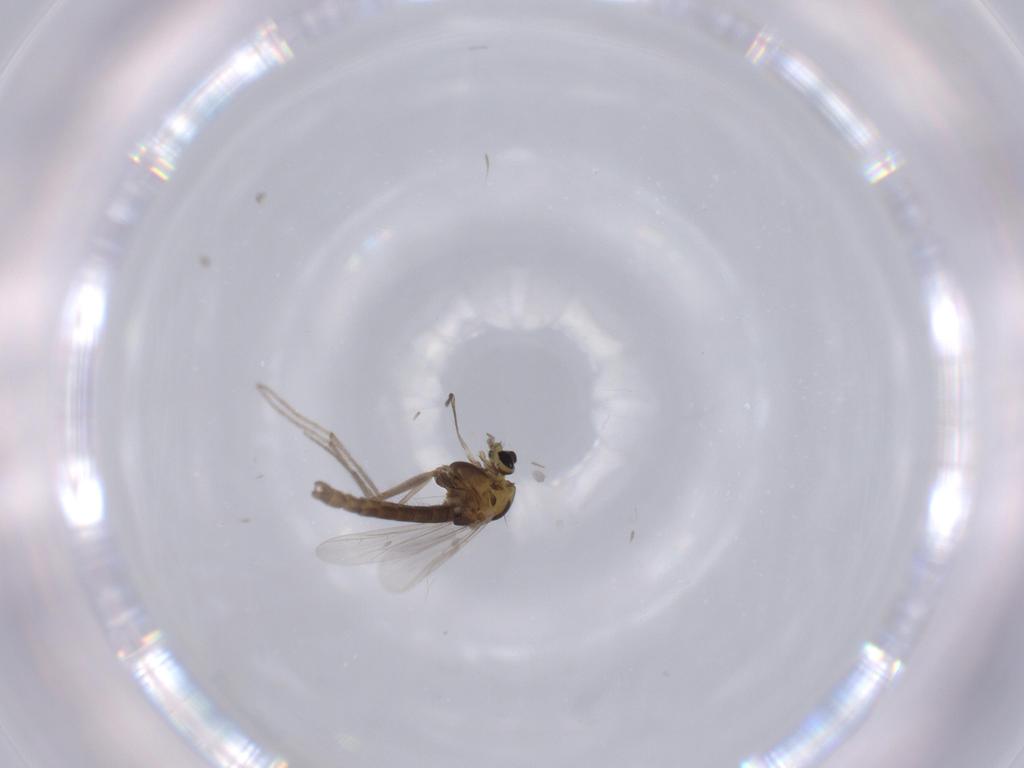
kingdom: Animalia
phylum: Arthropoda
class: Insecta
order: Diptera
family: Chironomidae
